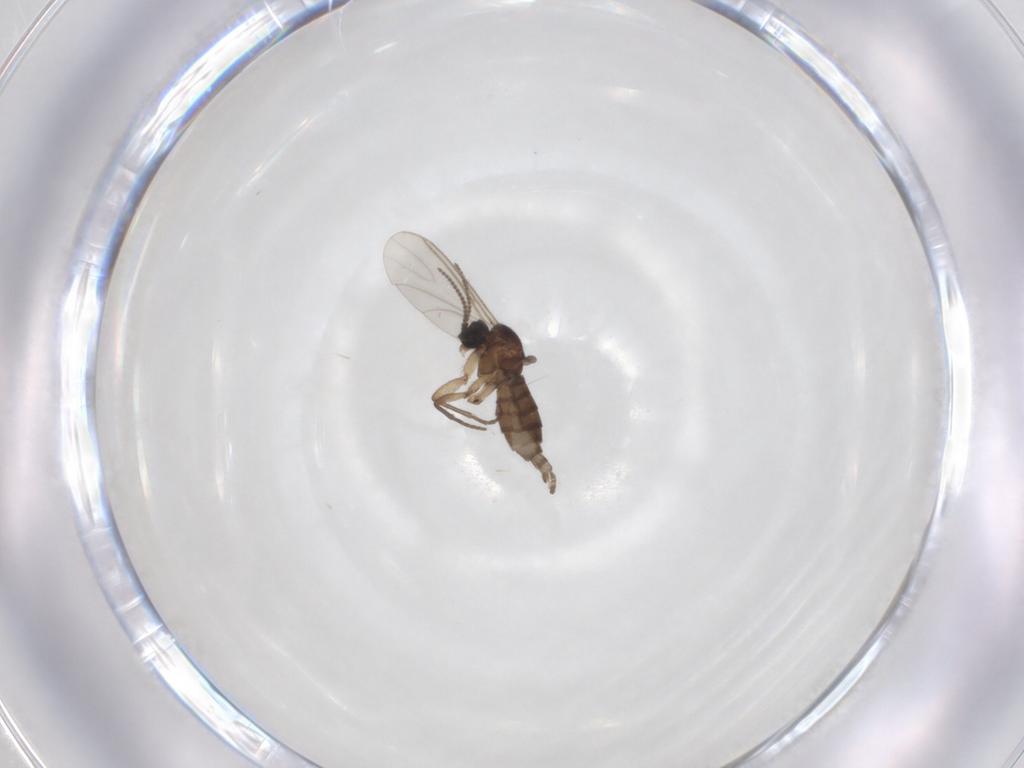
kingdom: Animalia
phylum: Arthropoda
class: Insecta
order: Diptera
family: Sciaridae
